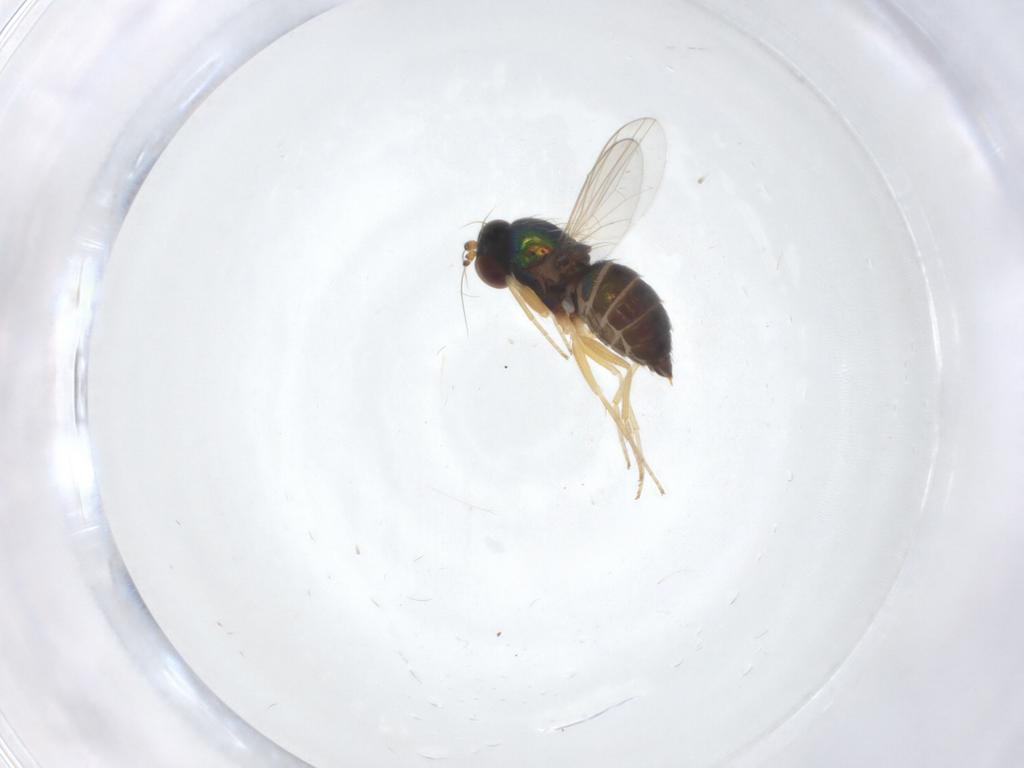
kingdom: Animalia
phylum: Arthropoda
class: Insecta
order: Diptera
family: Dolichopodidae
